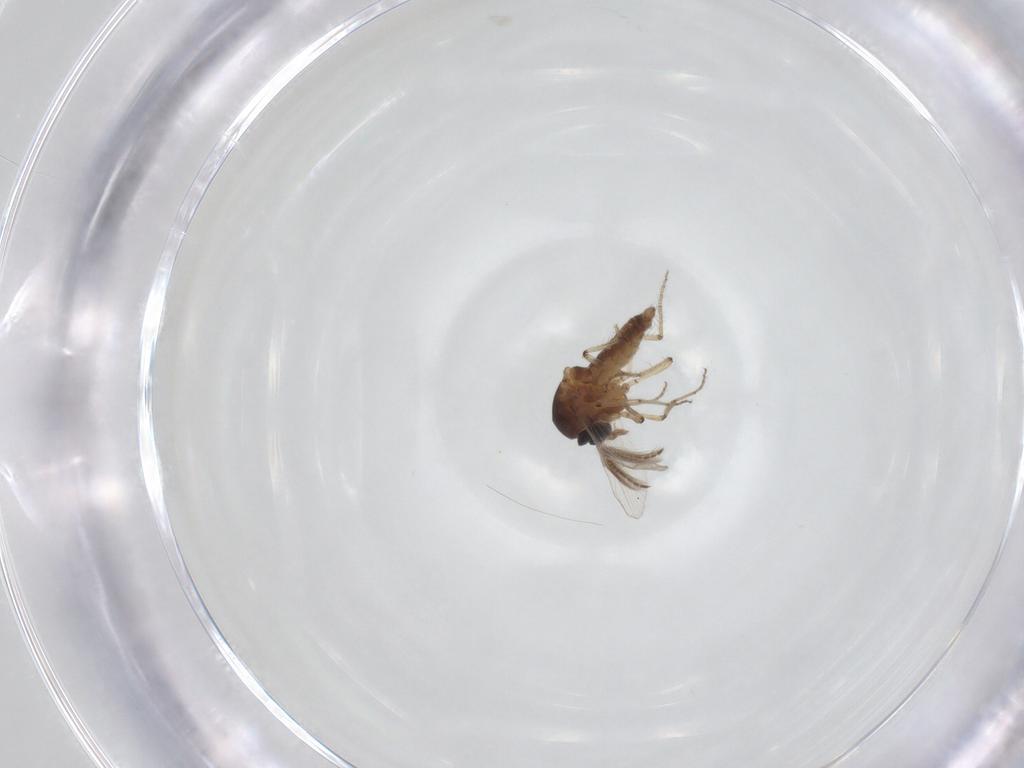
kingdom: Animalia
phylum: Arthropoda
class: Insecta
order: Diptera
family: Ceratopogonidae
